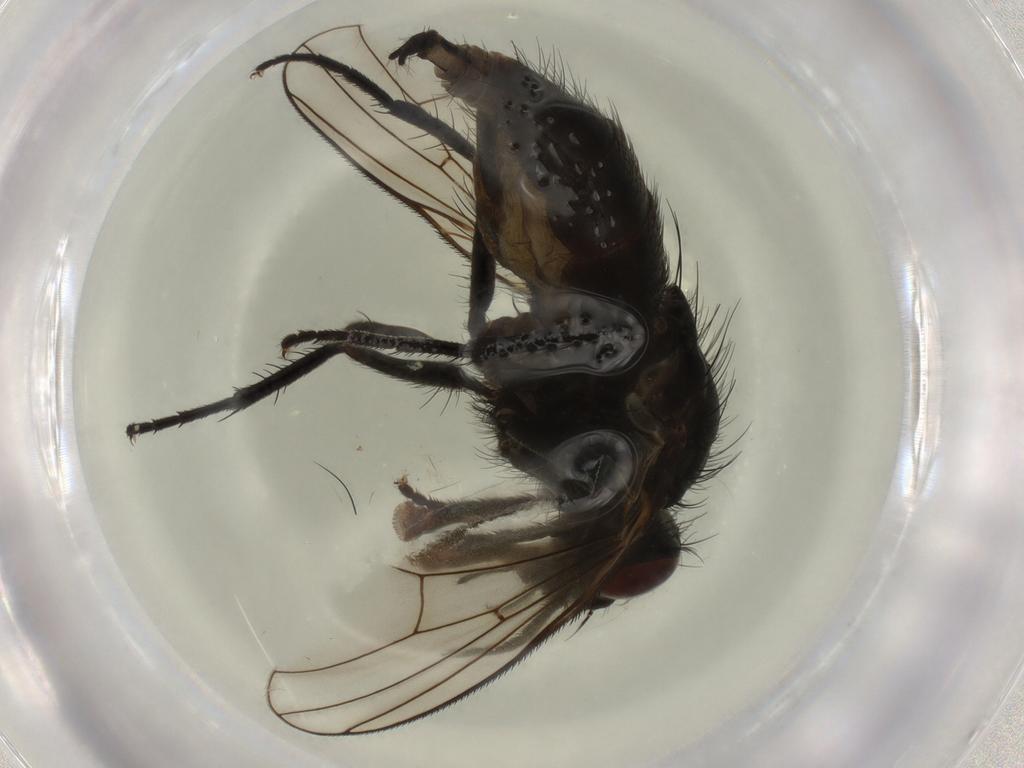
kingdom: Animalia
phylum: Arthropoda
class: Insecta
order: Diptera
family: Muscidae
